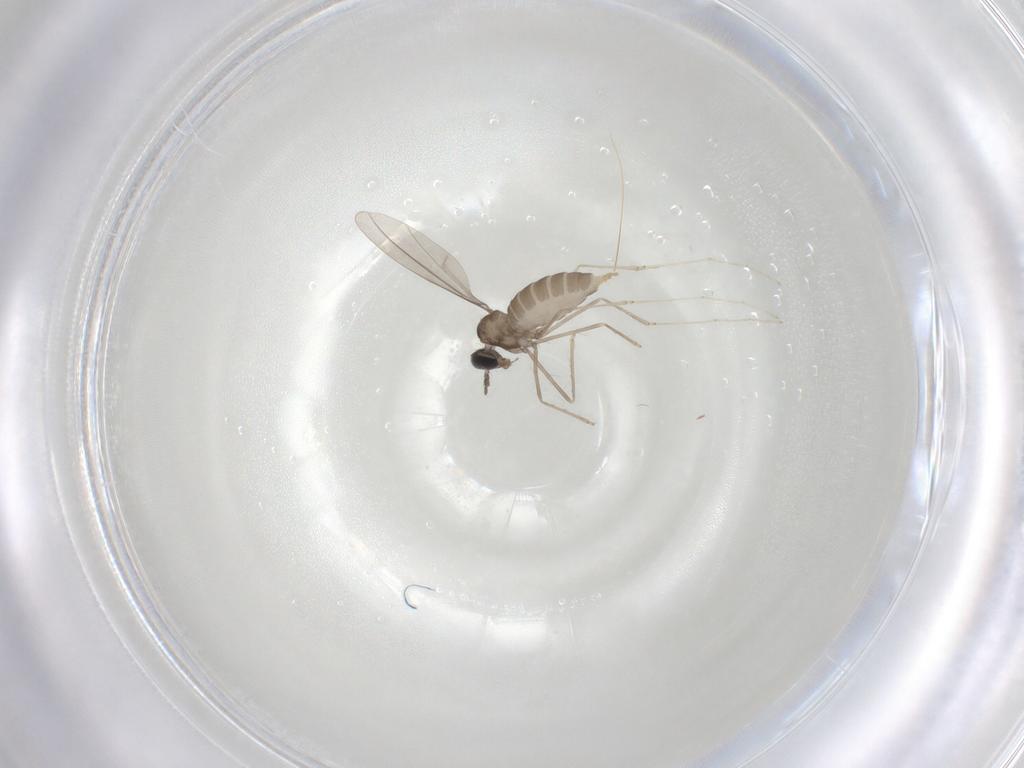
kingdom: Animalia
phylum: Arthropoda
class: Insecta
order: Diptera
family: Cecidomyiidae
